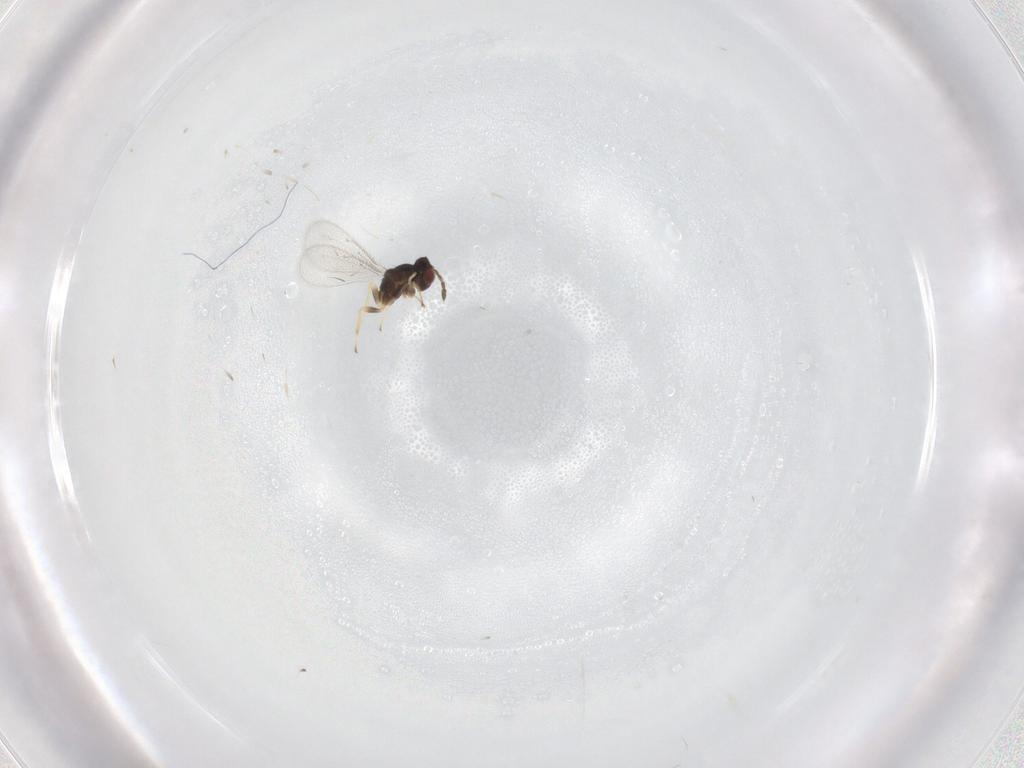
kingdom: Animalia
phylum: Arthropoda
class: Insecta
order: Hymenoptera
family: Eulophidae
